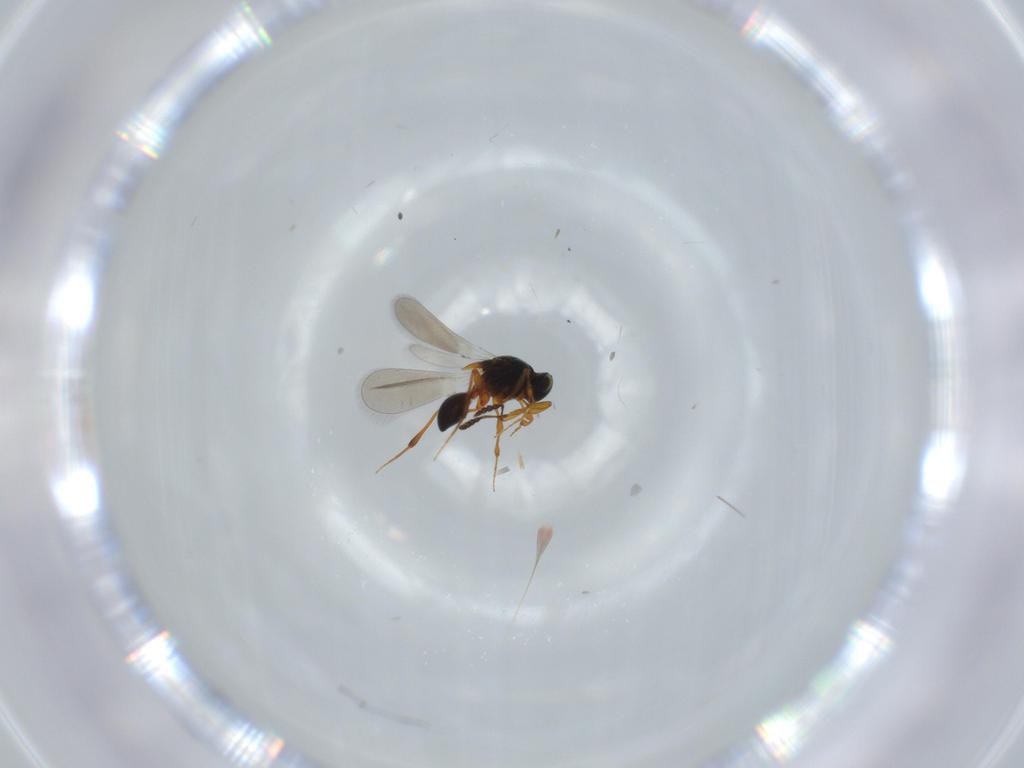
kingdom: Animalia
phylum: Arthropoda
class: Insecta
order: Hymenoptera
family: Platygastridae
